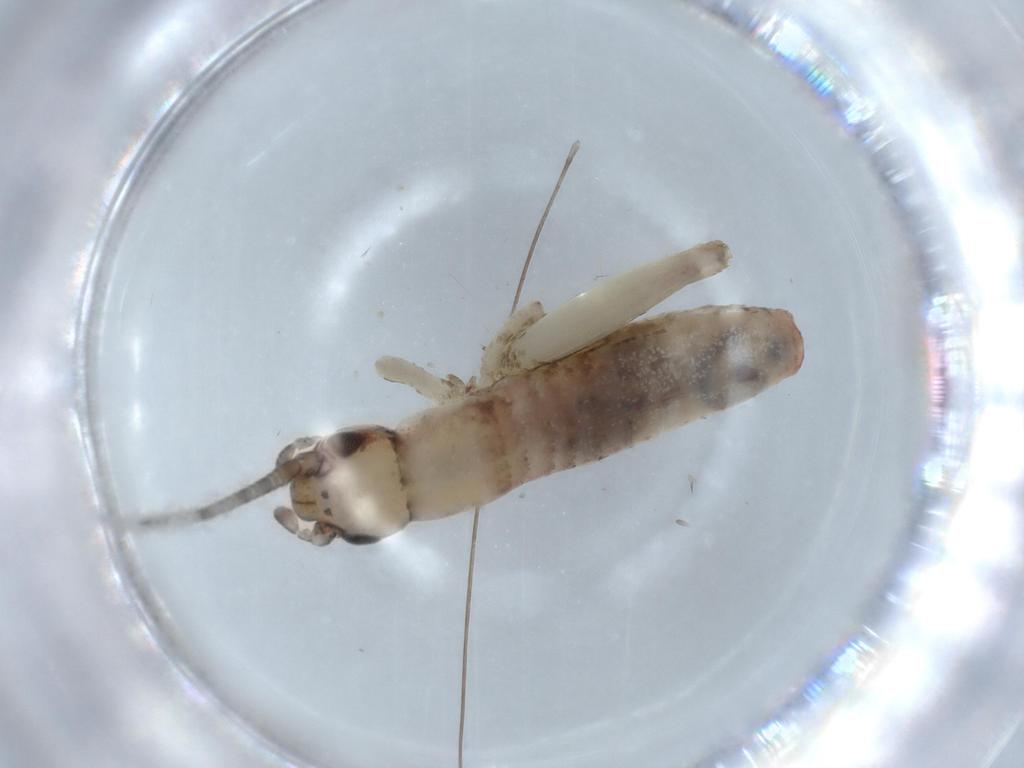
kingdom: Animalia
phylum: Arthropoda
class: Insecta
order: Orthoptera
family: Mogoplistidae
